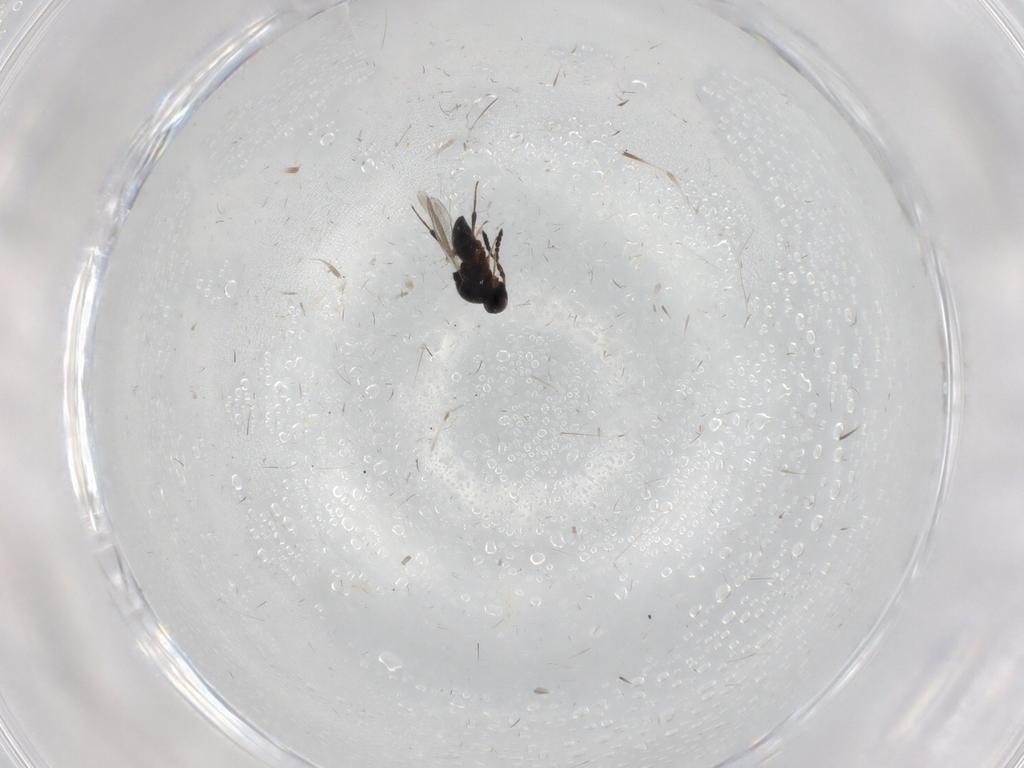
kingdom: Animalia
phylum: Arthropoda
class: Insecta
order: Hymenoptera
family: Platygastridae
